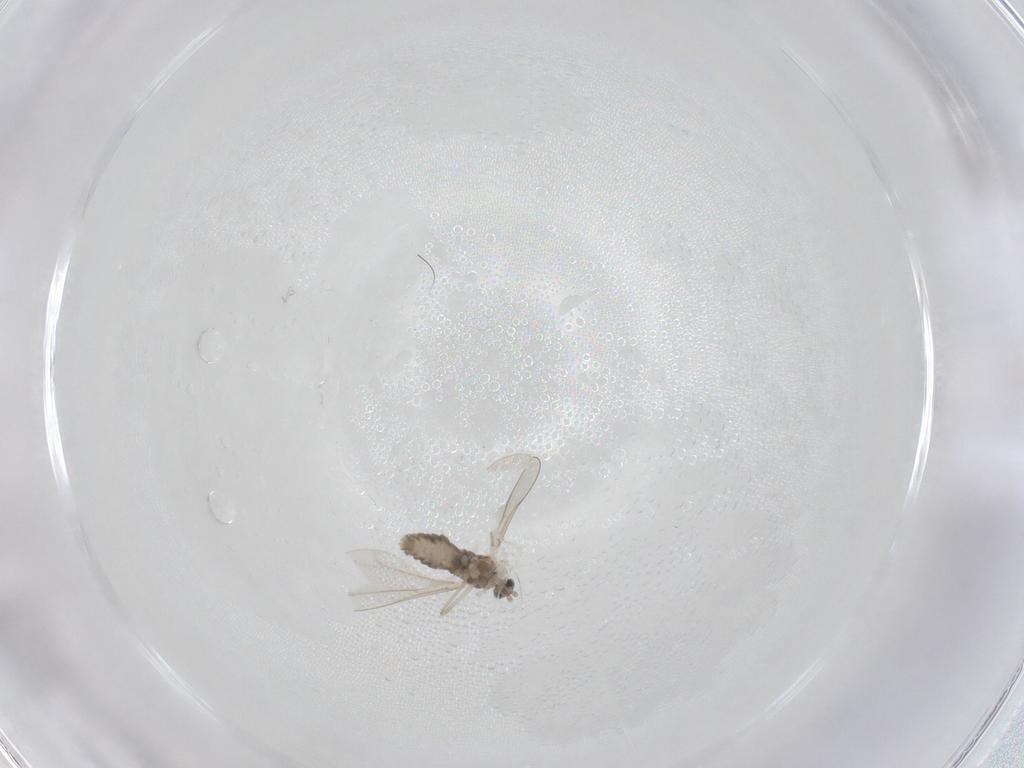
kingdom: Animalia
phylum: Arthropoda
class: Insecta
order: Diptera
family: Cecidomyiidae
